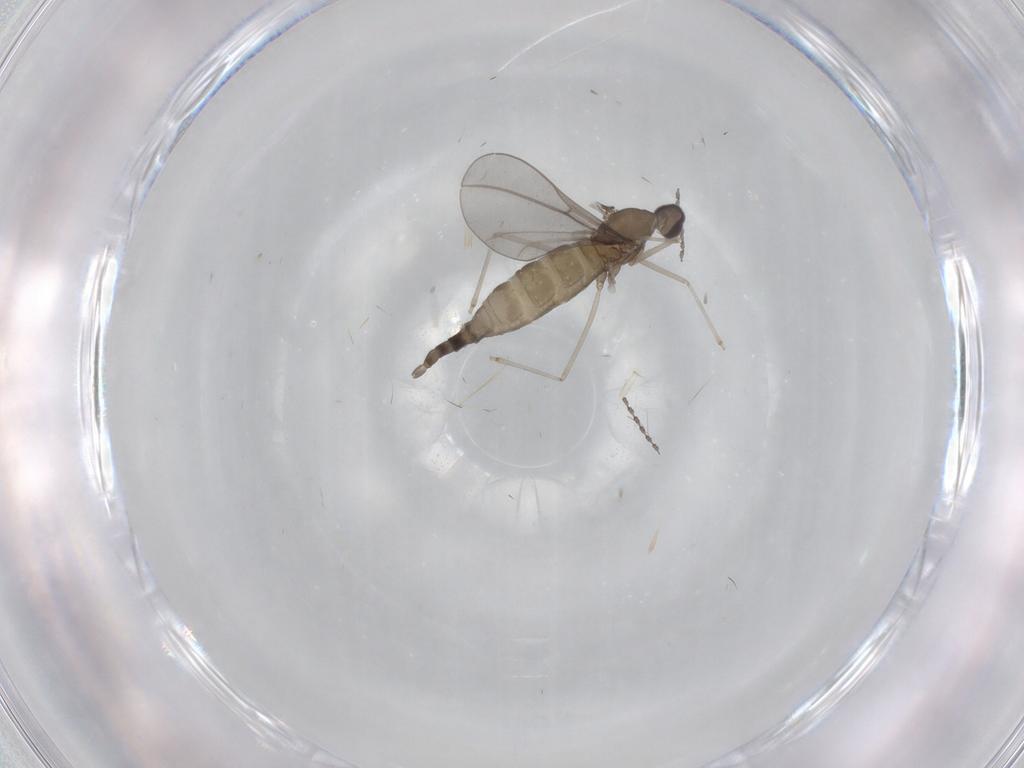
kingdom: Animalia
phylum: Arthropoda
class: Insecta
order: Diptera
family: Cecidomyiidae
